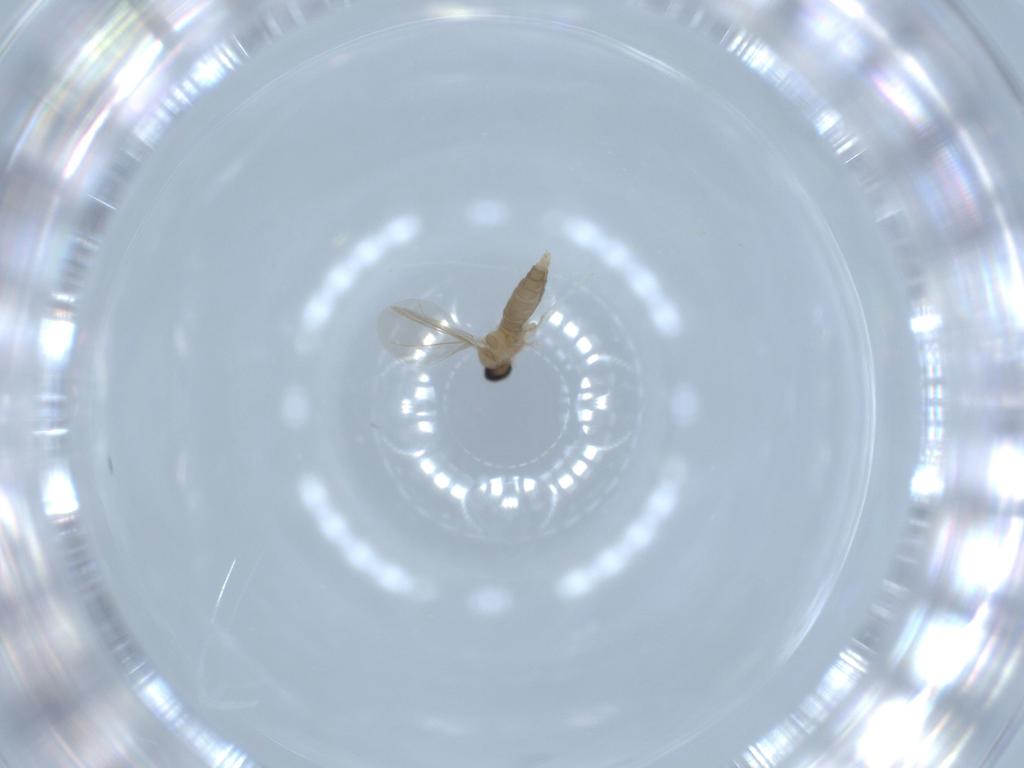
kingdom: Animalia
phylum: Arthropoda
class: Insecta
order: Diptera
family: Cecidomyiidae
